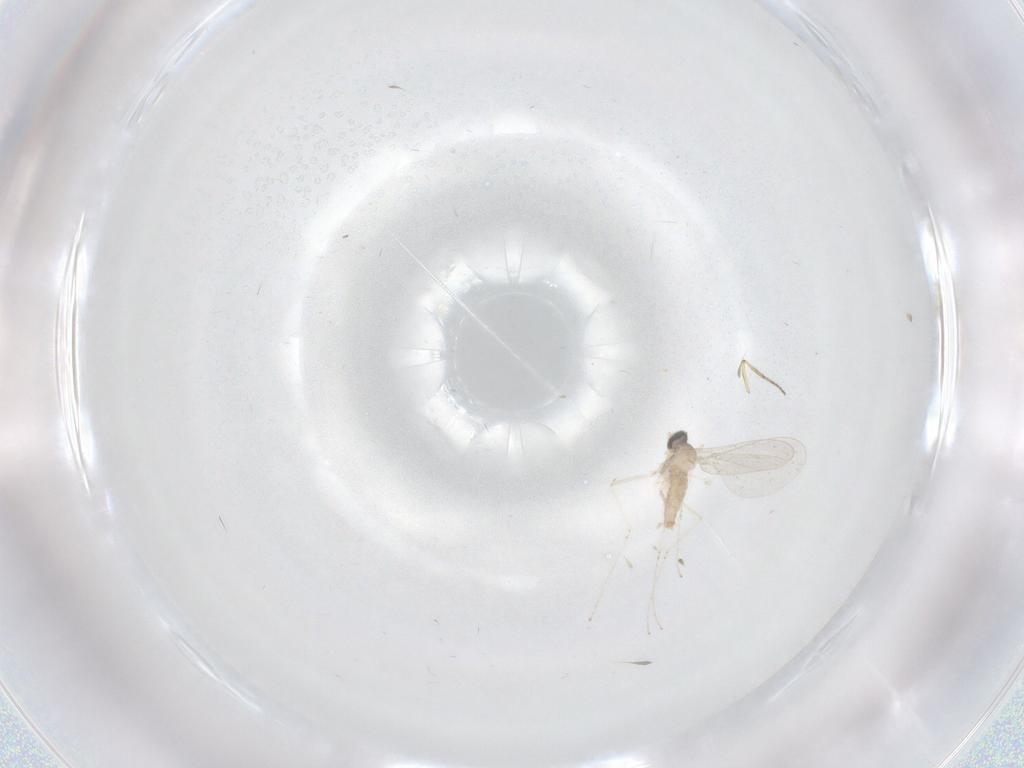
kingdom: Animalia
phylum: Arthropoda
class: Insecta
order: Diptera
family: Cecidomyiidae
